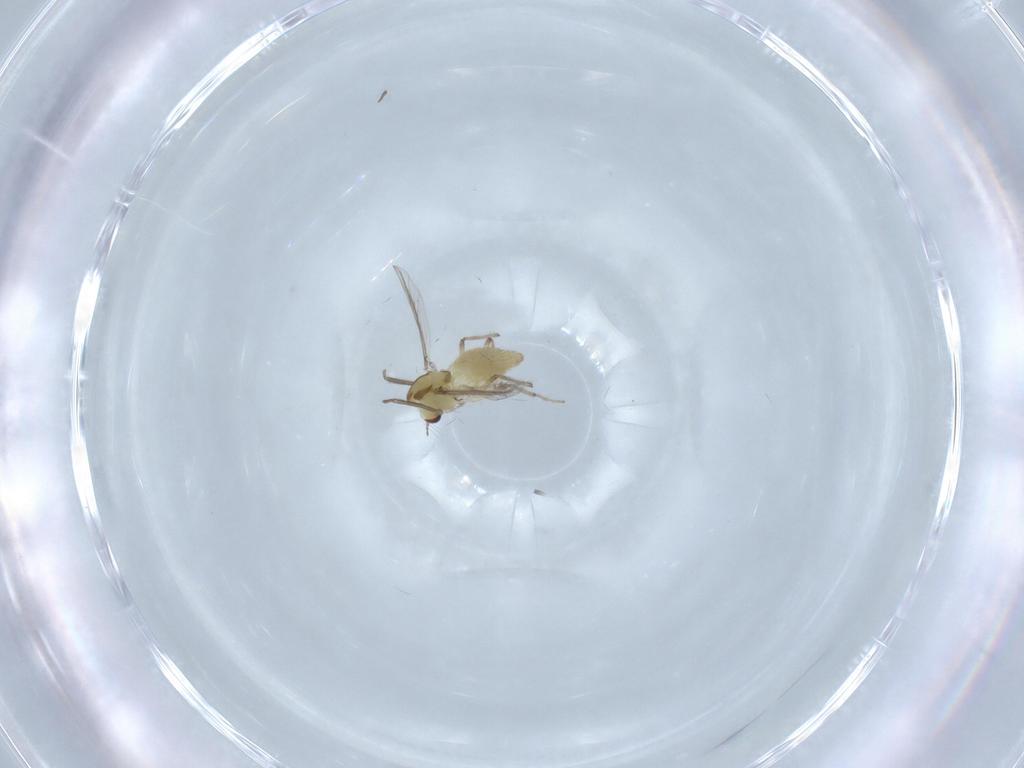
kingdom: Animalia
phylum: Arthropoda
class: Insecta
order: Diptera
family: Chironomidae
